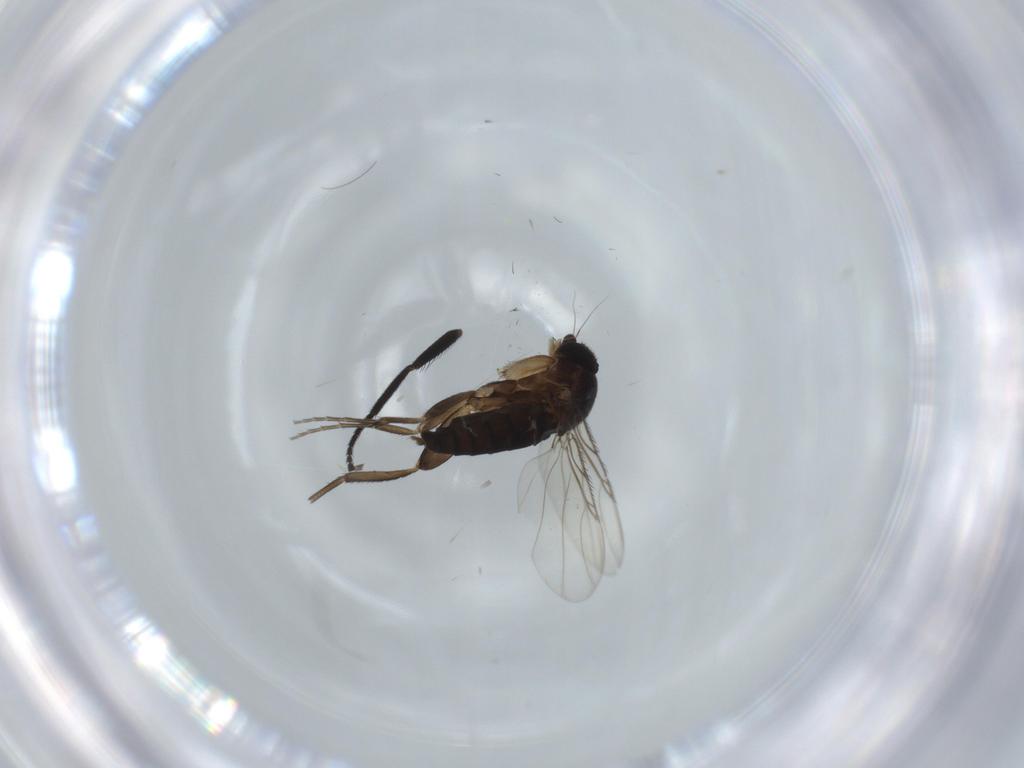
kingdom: Animalia
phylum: Arthropoda
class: Insecta
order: Diptera
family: Phoridae
